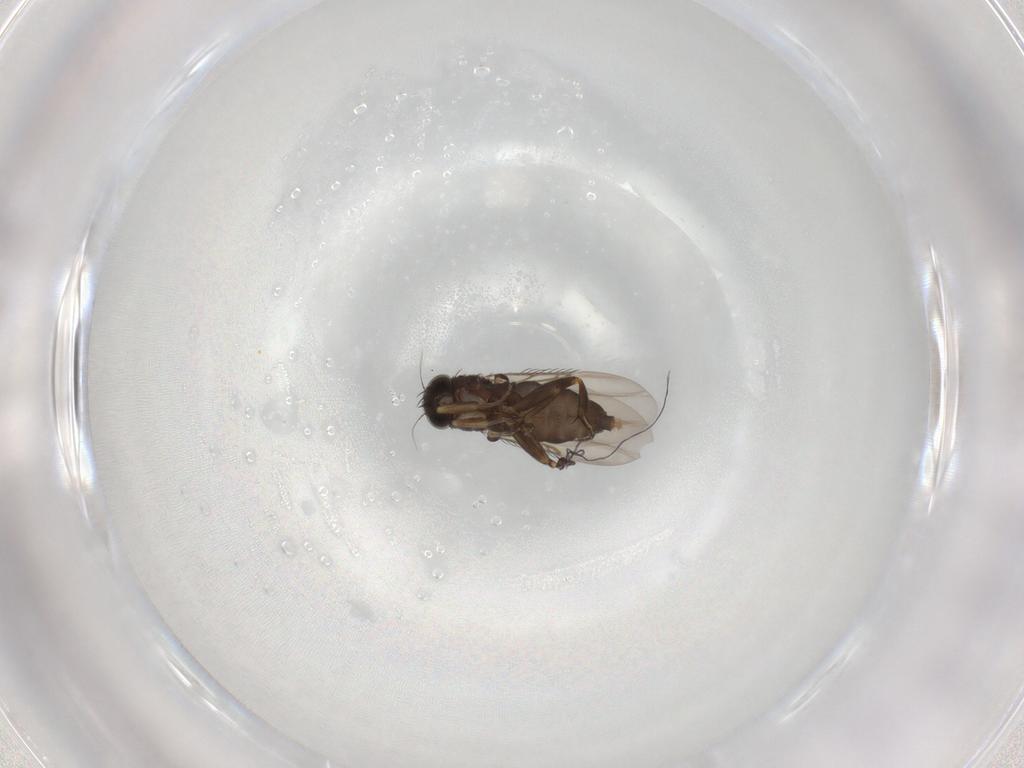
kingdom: Animalia
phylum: Arthropoda
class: Insecta
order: Diptera
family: Phoridae
